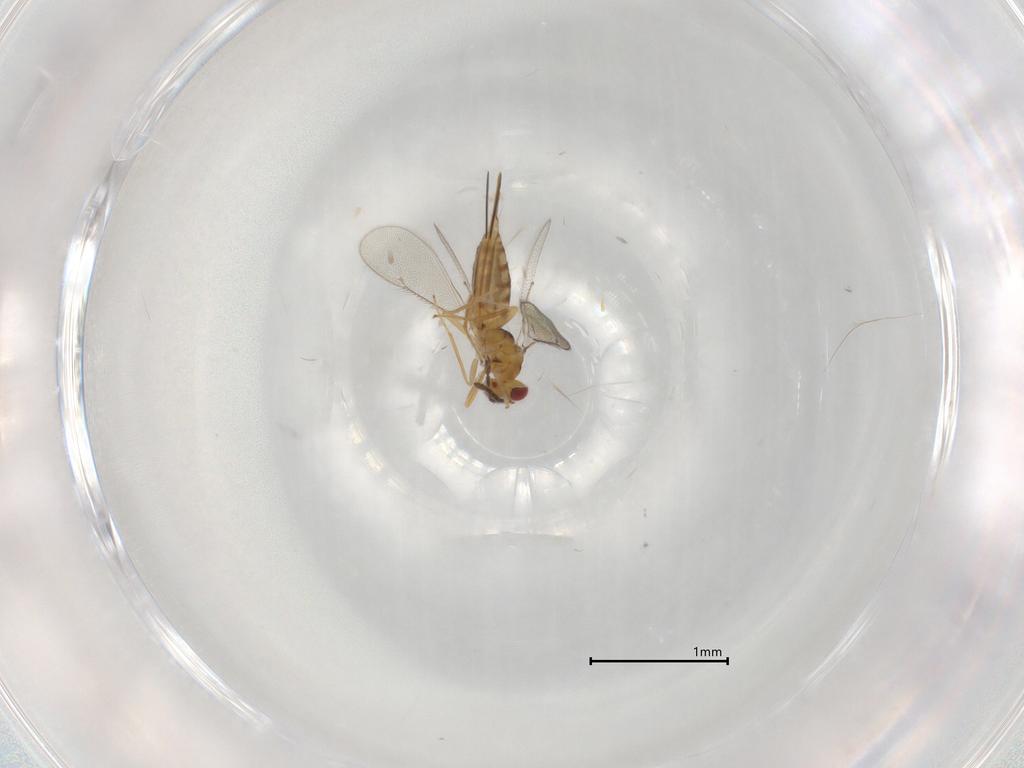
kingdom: Animalia
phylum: Arthropoda
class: Insecta
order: Hymenoptera
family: Eulophidae
